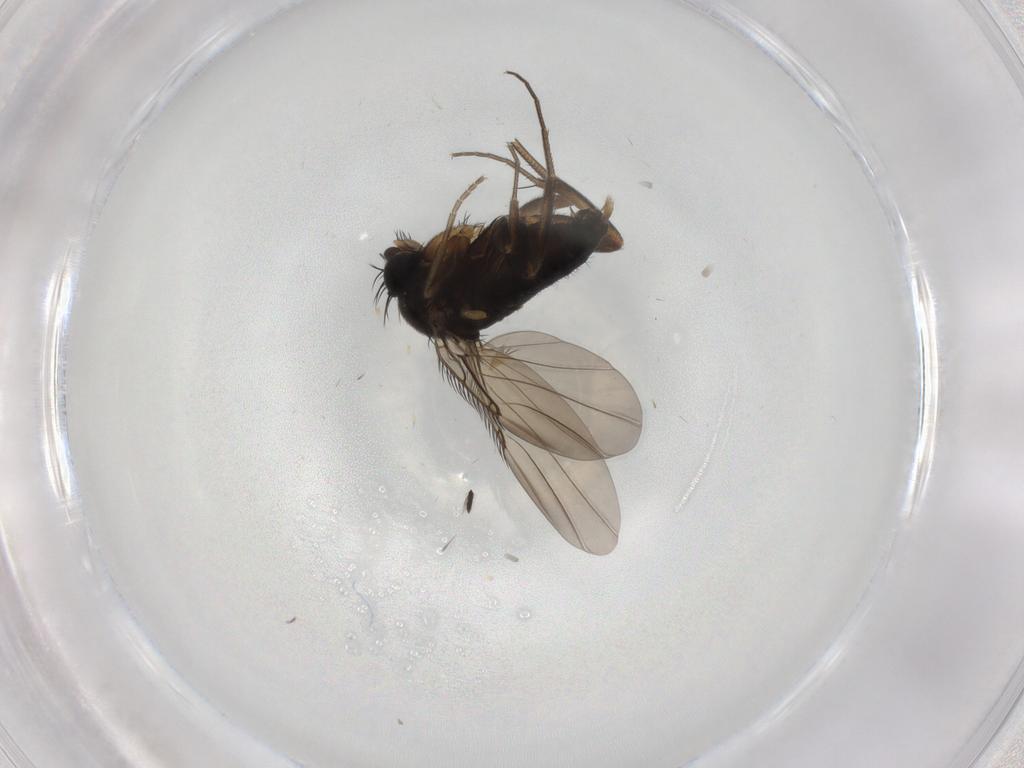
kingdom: Animalia
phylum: Arthropoda
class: Insecta
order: Diptera
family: Phoridae
